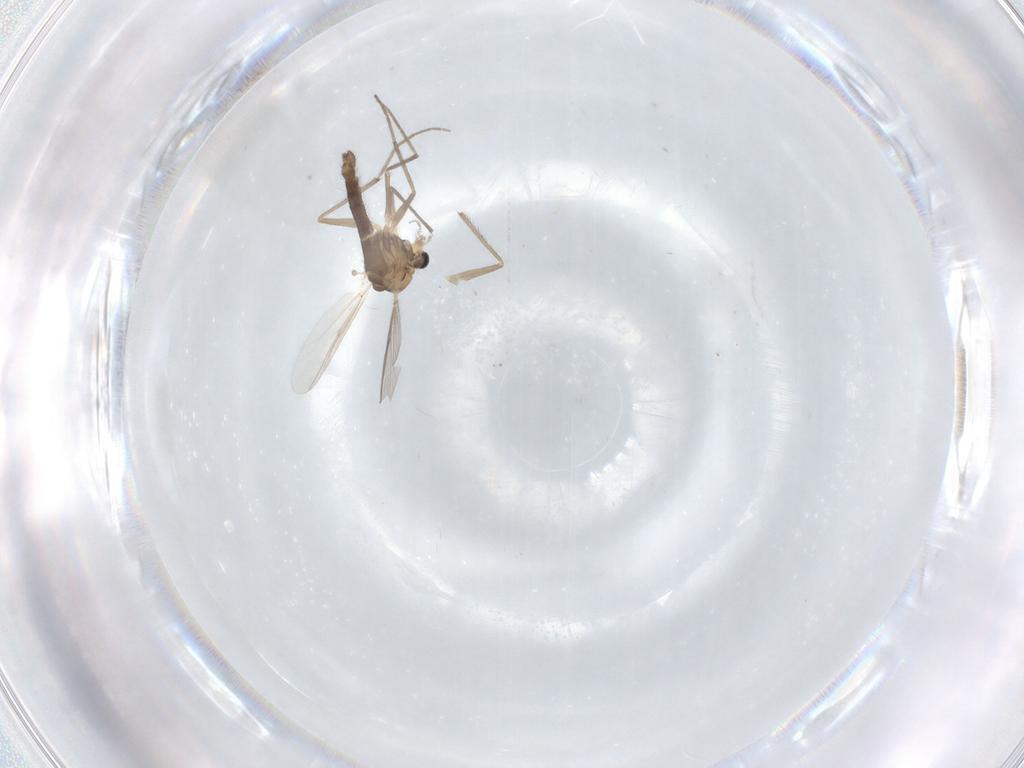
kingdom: Animalia
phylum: Arthropoda
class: Insecta
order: Diptera
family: Chironomidae
